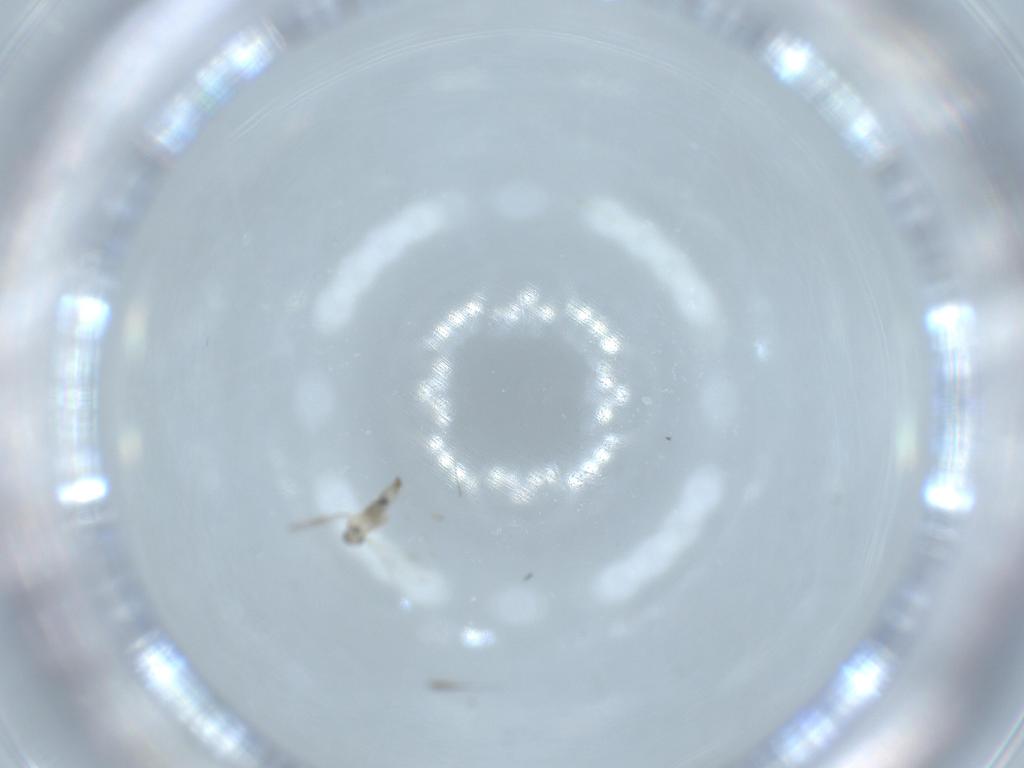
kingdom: Animalia
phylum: Arthropoda
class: Insecta
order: Diptera
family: Cecidomyiidae
